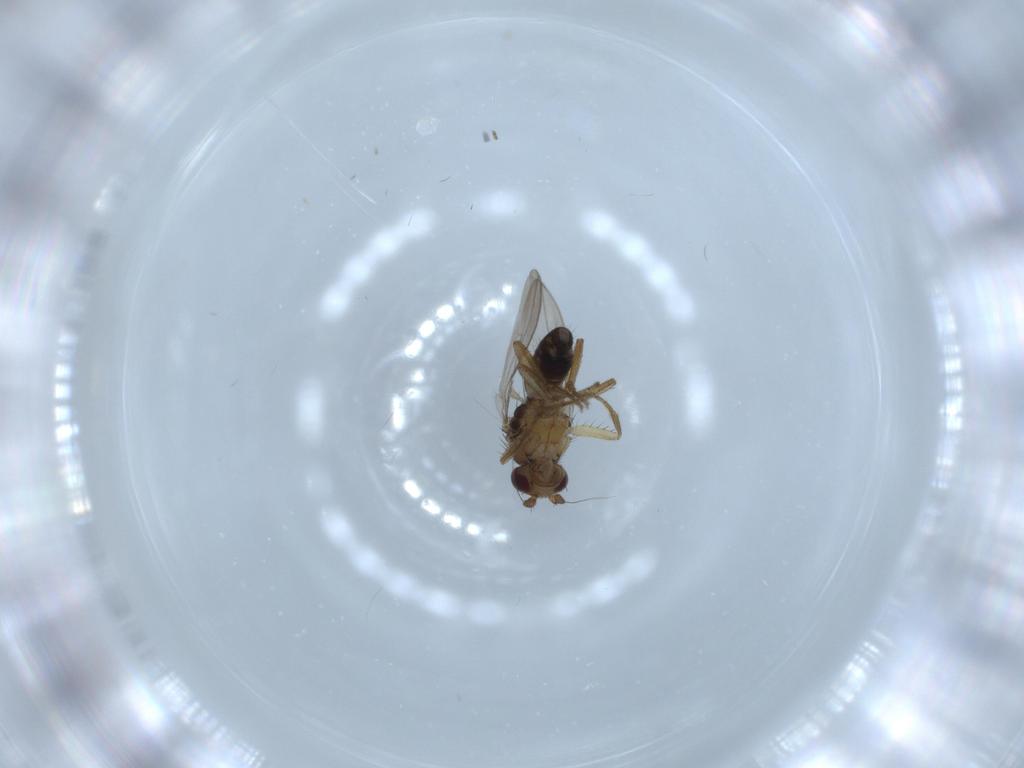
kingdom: Animalia
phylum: Arthropoda
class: Insecta
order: Diptera
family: Sphaeroceridae
